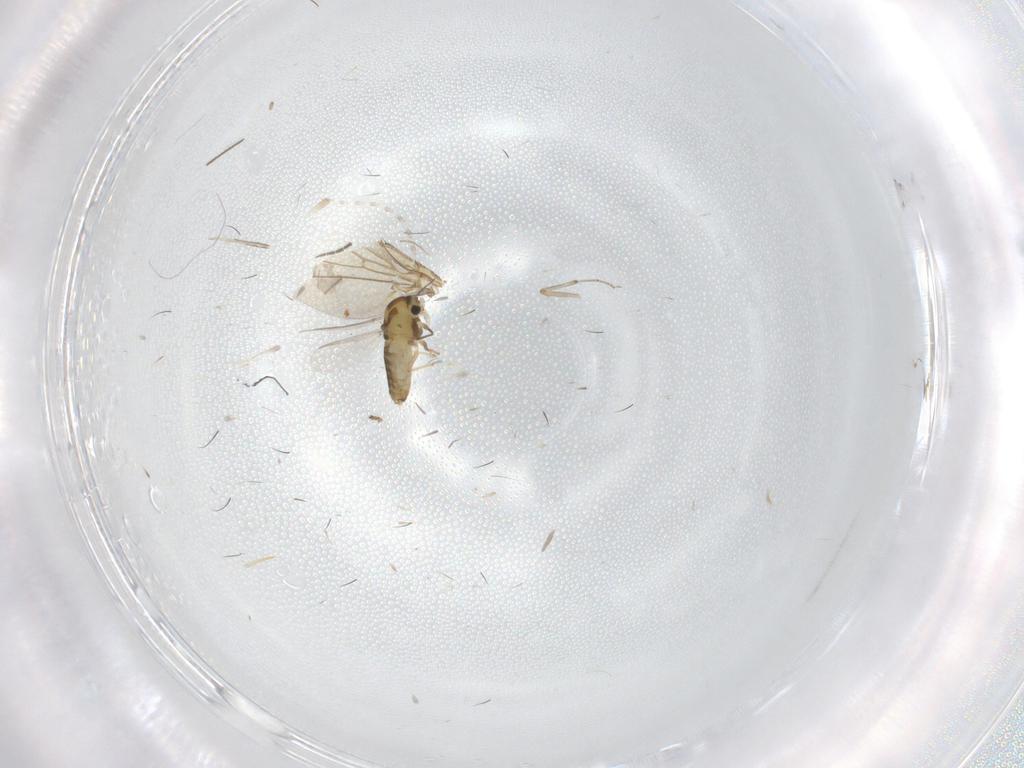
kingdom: Animalia
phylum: Arthropoda
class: Insecta
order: Diptera
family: Chironomidae
